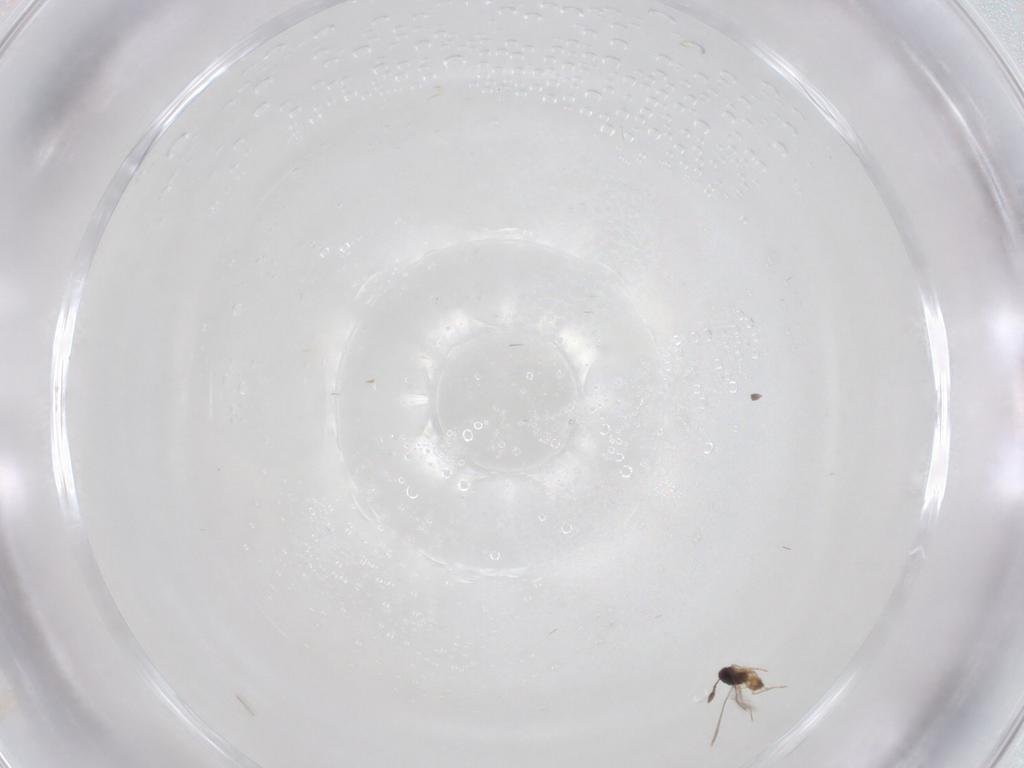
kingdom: Animalia
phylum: Arthropoda
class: Insecta
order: Hymenoptera
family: Mymaridae
